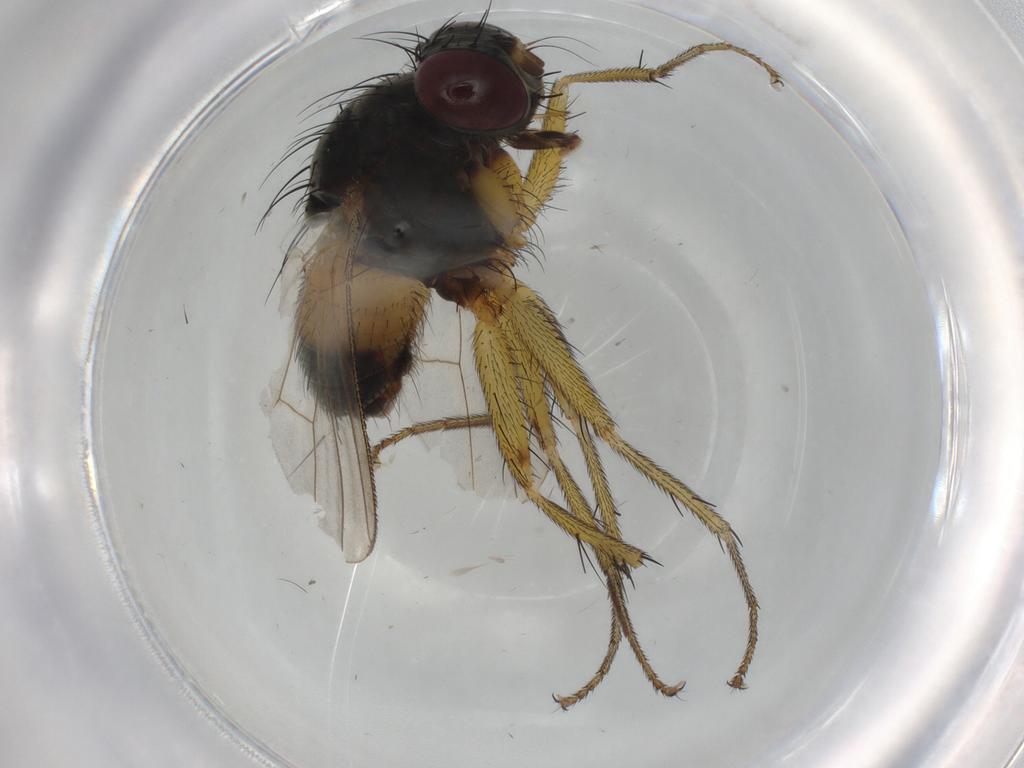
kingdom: Animalia
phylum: Arthropoda
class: Insecta
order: Diptera
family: Muscidae
